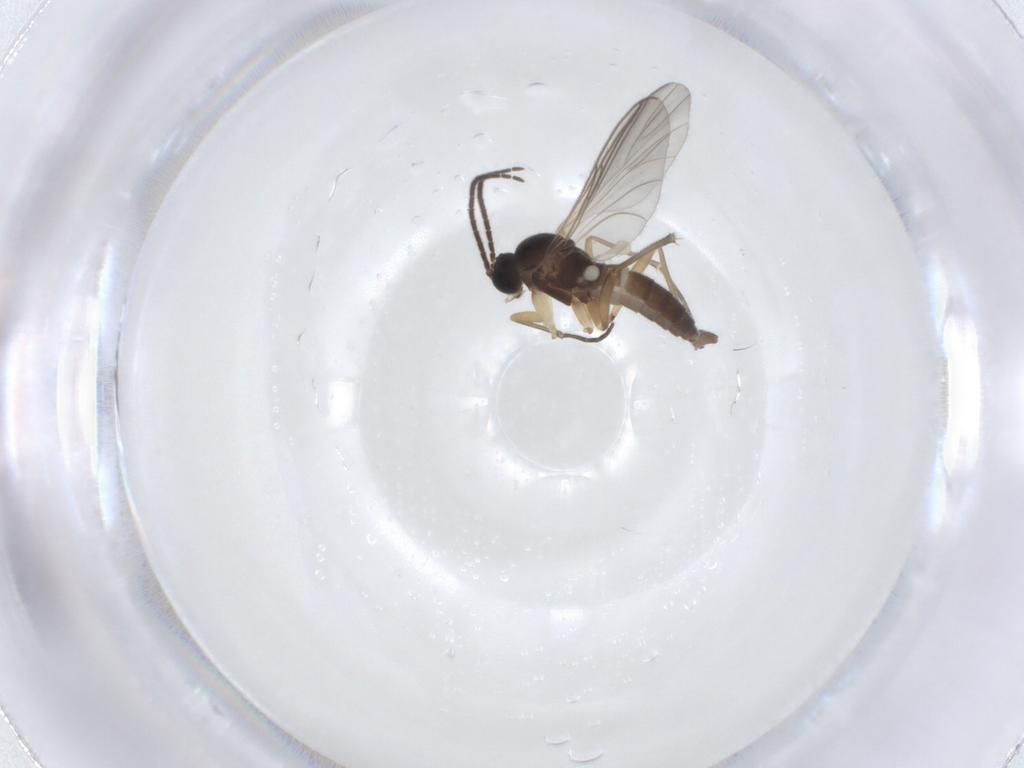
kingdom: Animalia
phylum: Arthropoda
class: Insecta
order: Diptera
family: Sciaridae
